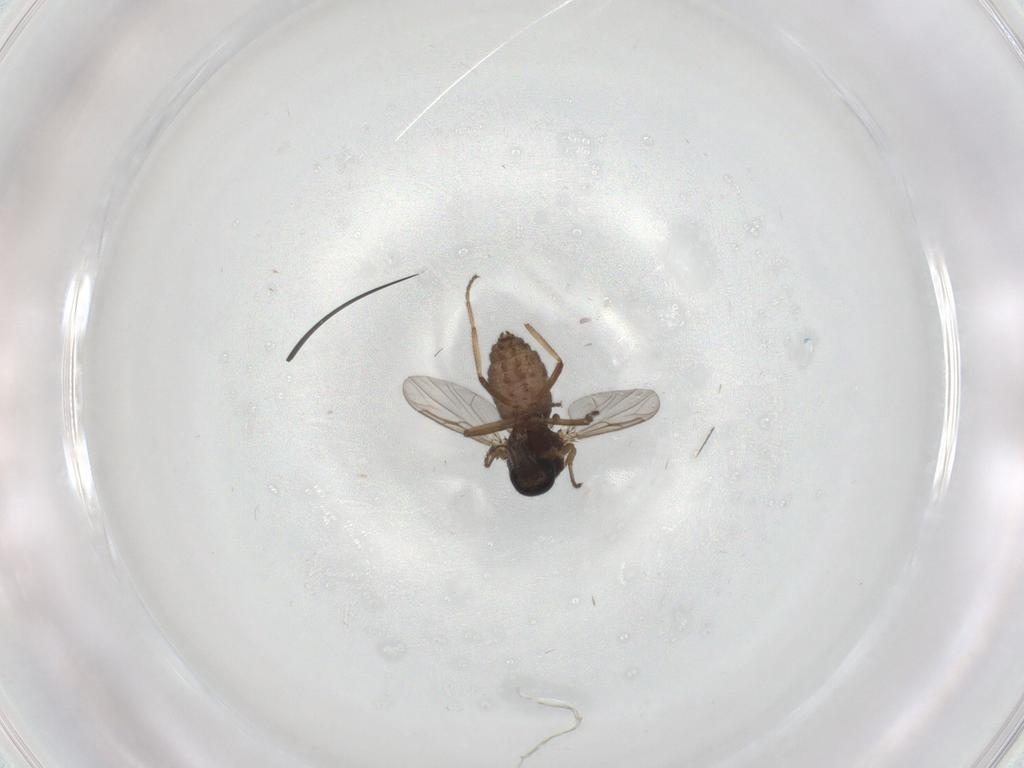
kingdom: Animalia
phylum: Arthropoda
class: Insecta
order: Diptera
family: Ceratopogonidae
